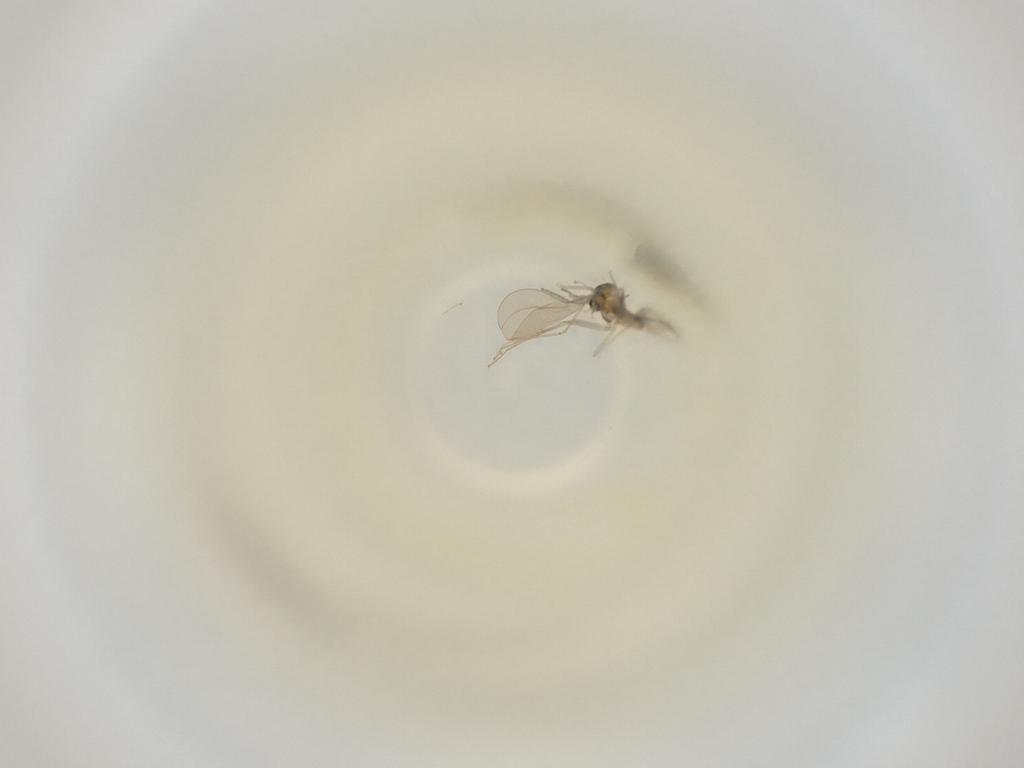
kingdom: Animalia
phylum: Arthropoda
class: Insecta
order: Diptera
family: Cecidomyiidae
